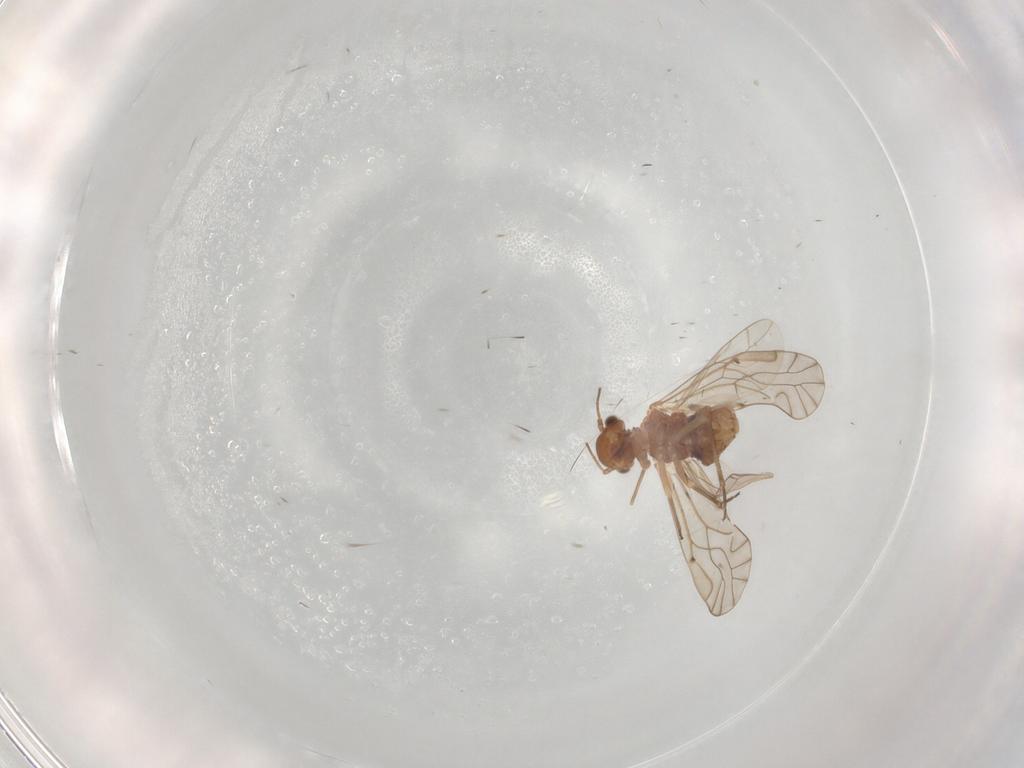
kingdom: Animalia
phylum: Arthropoda
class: Insecta
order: Psocodea
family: Lachesillidae
